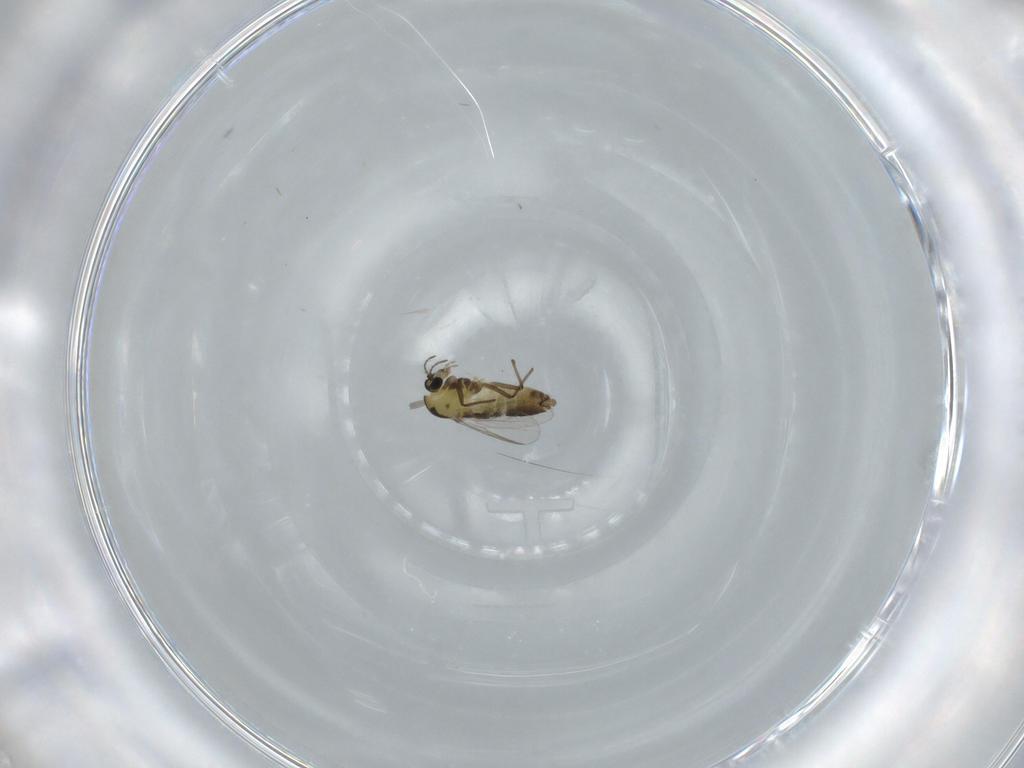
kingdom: Animalia
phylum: Arthropoda
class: Insecta
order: Diptera
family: Chironomidae
